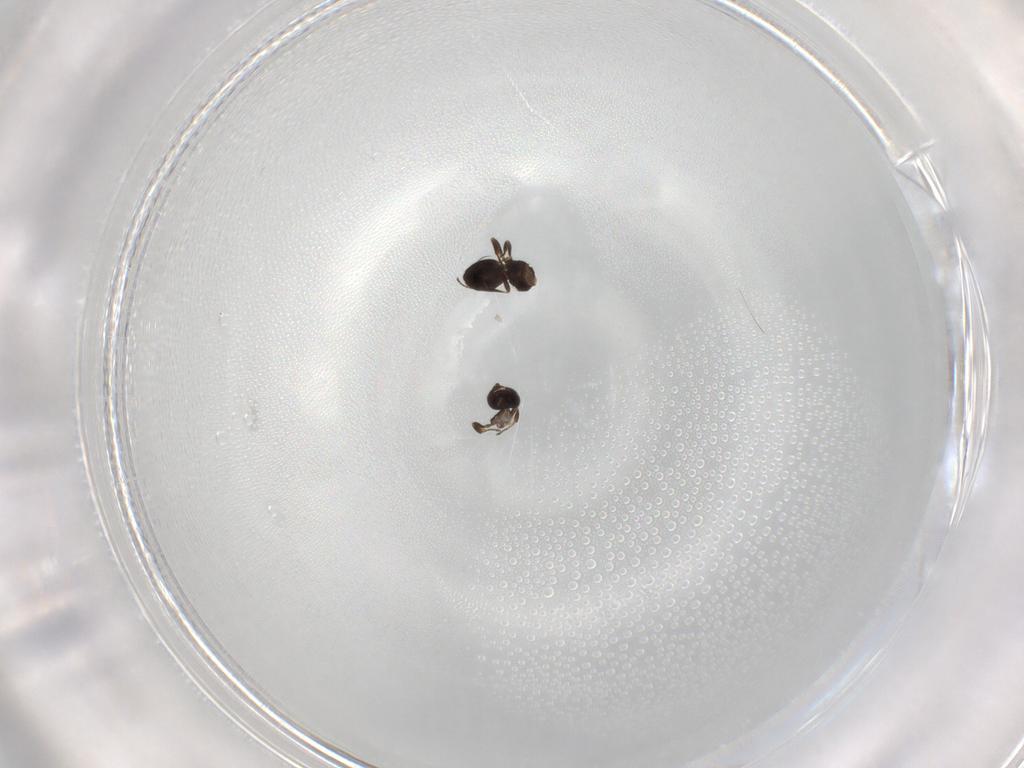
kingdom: Animalia
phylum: Arthropoda
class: Insecta
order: Hymenoptera
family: Scelionidae
